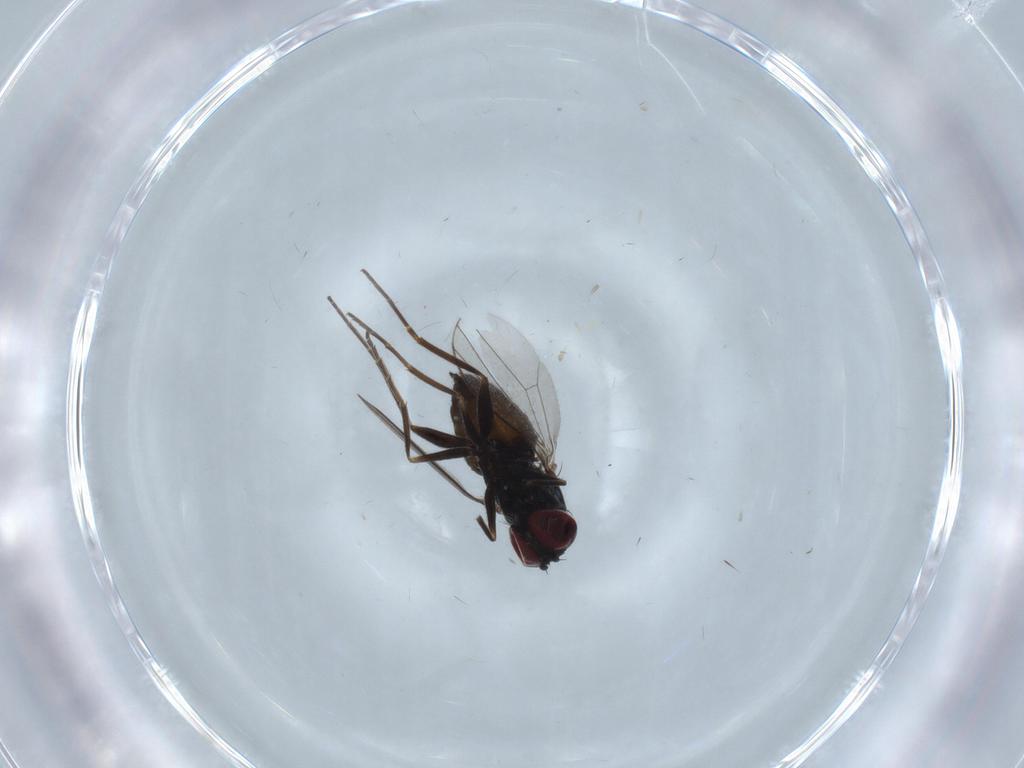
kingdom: Animalia
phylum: Arthropoda
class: Insecta
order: Diptera
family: Dolichopodidae
